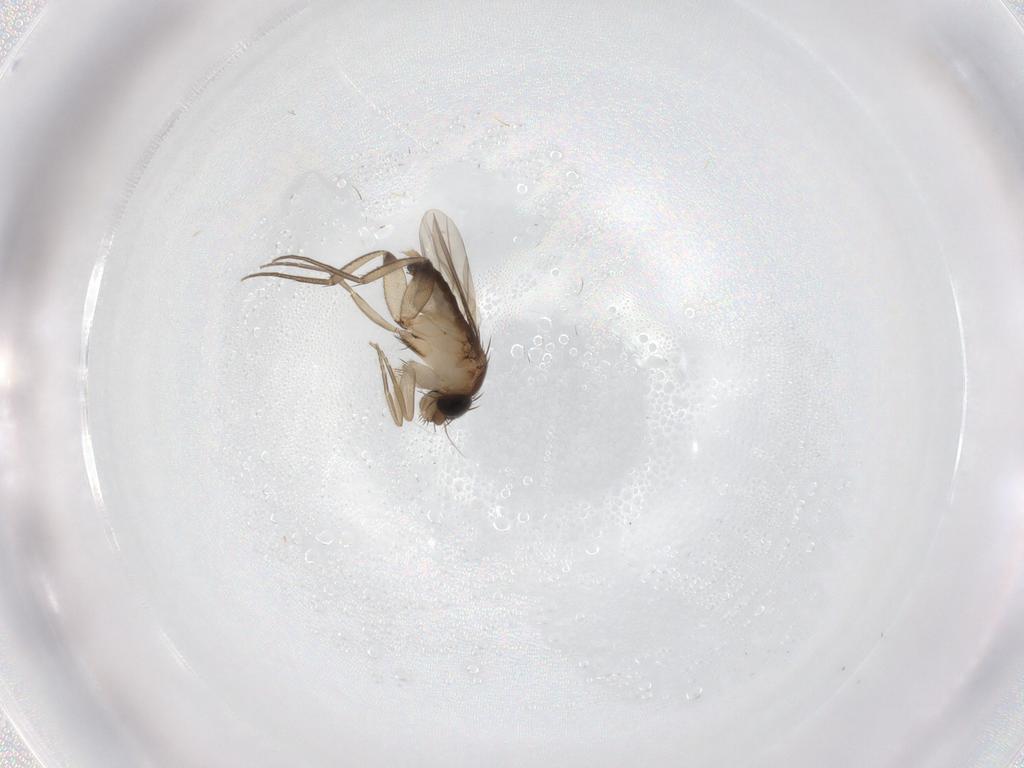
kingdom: Animalia
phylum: Arthropoda
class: Insecta
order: Diptera
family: Phoridae
